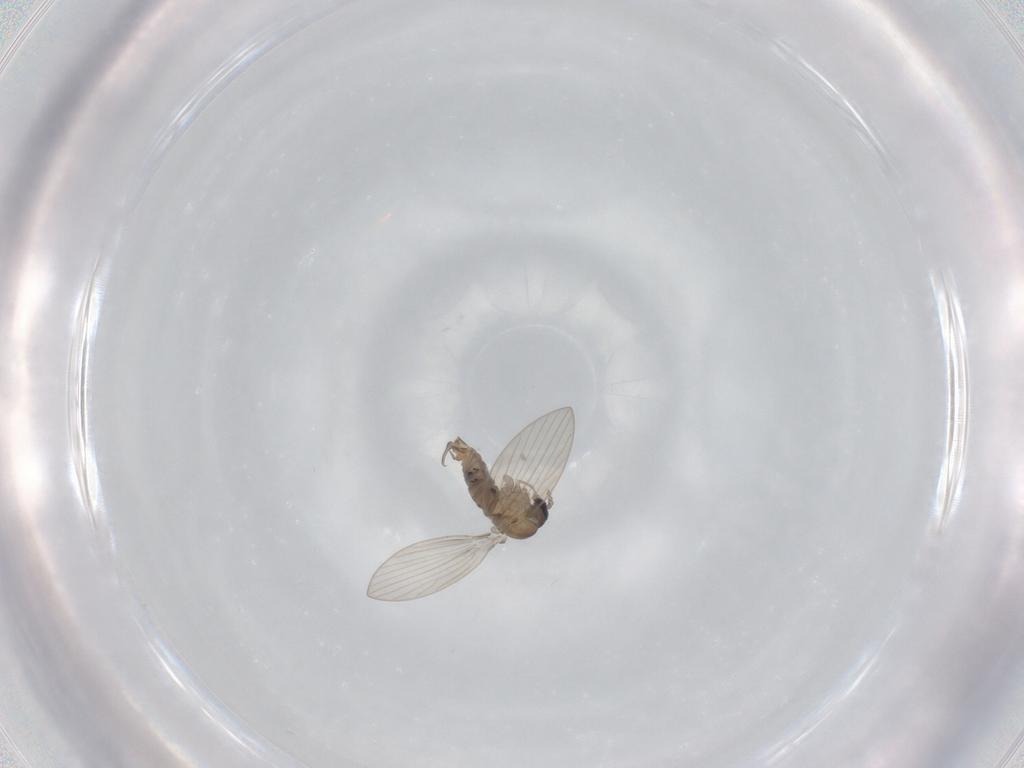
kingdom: Animalia
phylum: Arthropoda
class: Insecta
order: Diptera
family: Psychodidae
